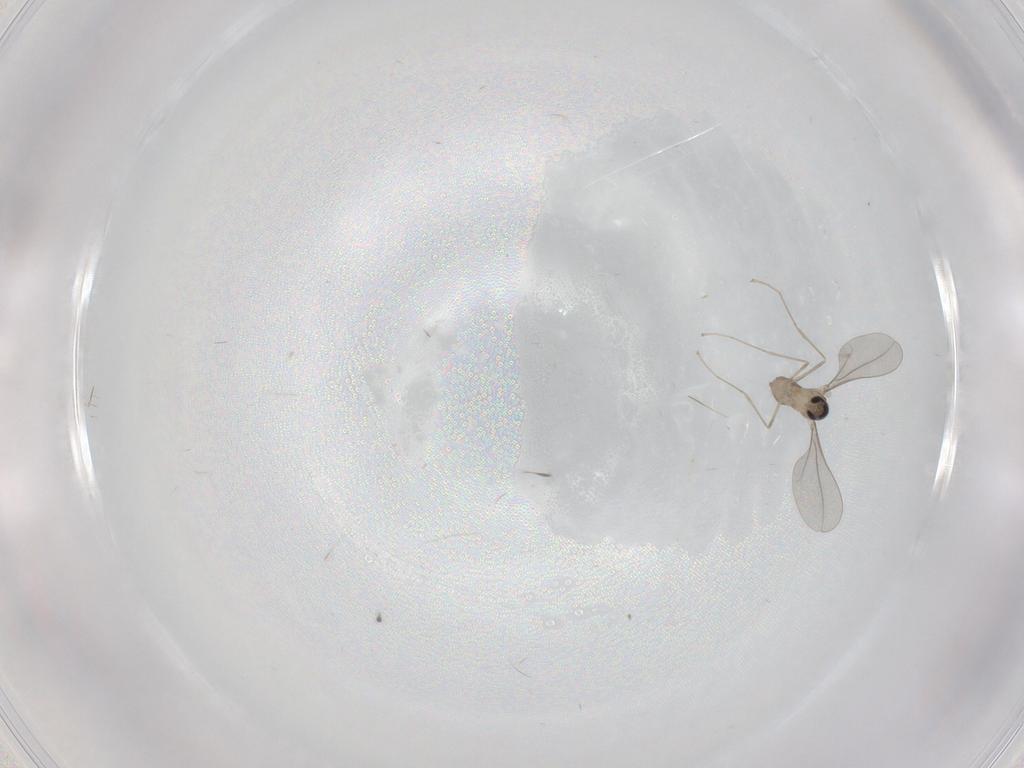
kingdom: Animalia
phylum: Arthropoda
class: Insecta
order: Diptera
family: Cecidomyiidae
